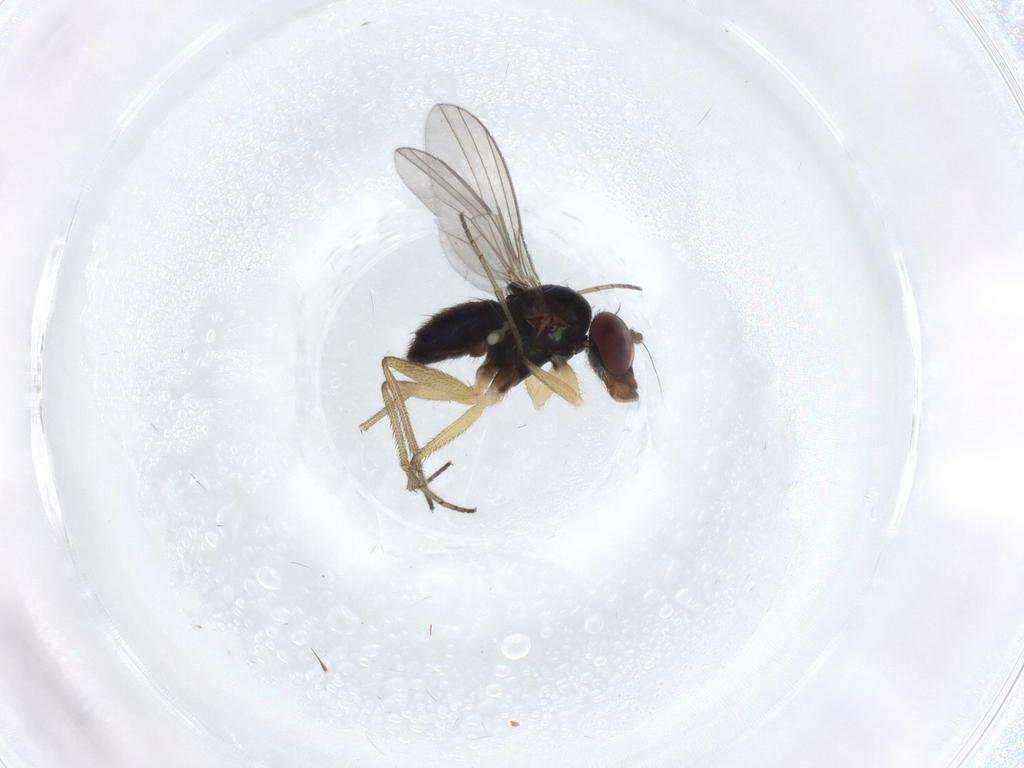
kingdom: Animalia
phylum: Arthropoda
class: Insecta
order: Diptera
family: Dolichopodidae
